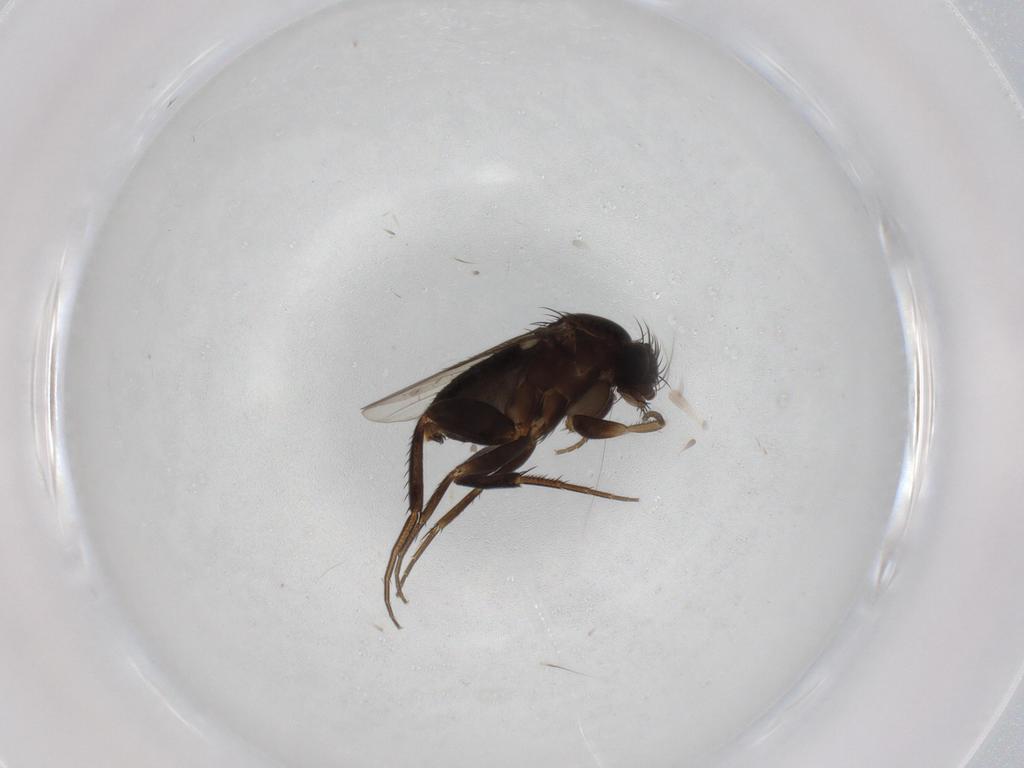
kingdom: Animalia
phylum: Arthropoda
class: Insecta
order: Diptera
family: Phoridae
